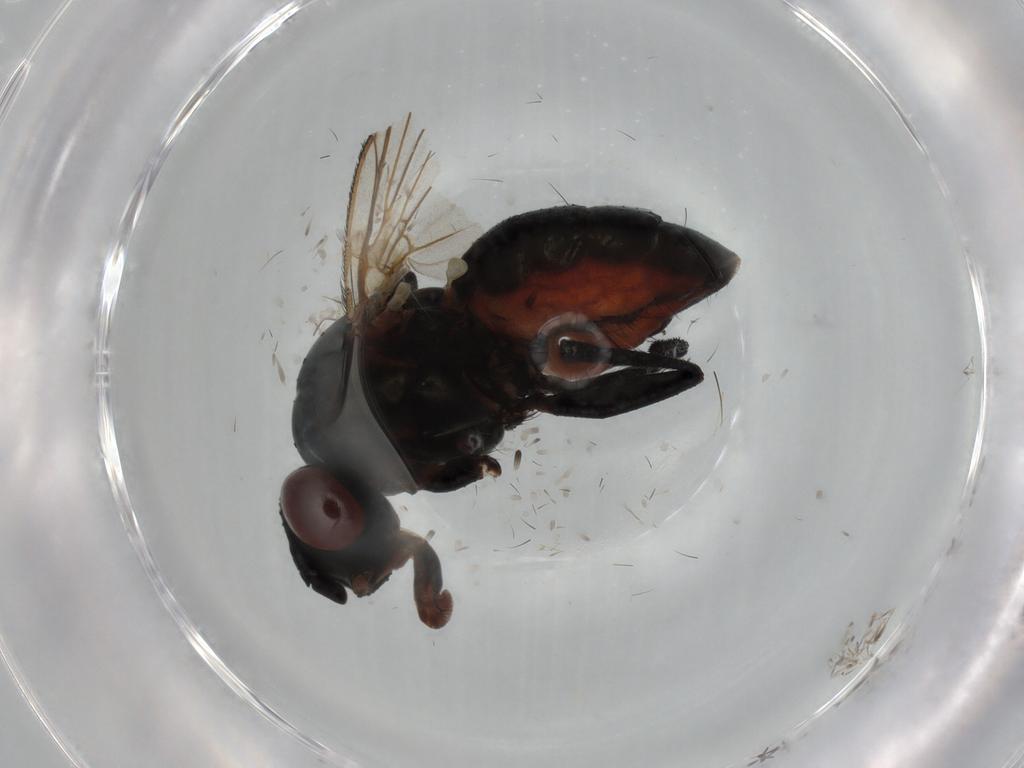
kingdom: Animalia
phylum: Arthropoda
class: Insecta
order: Diptera
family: Anthomyiidae
